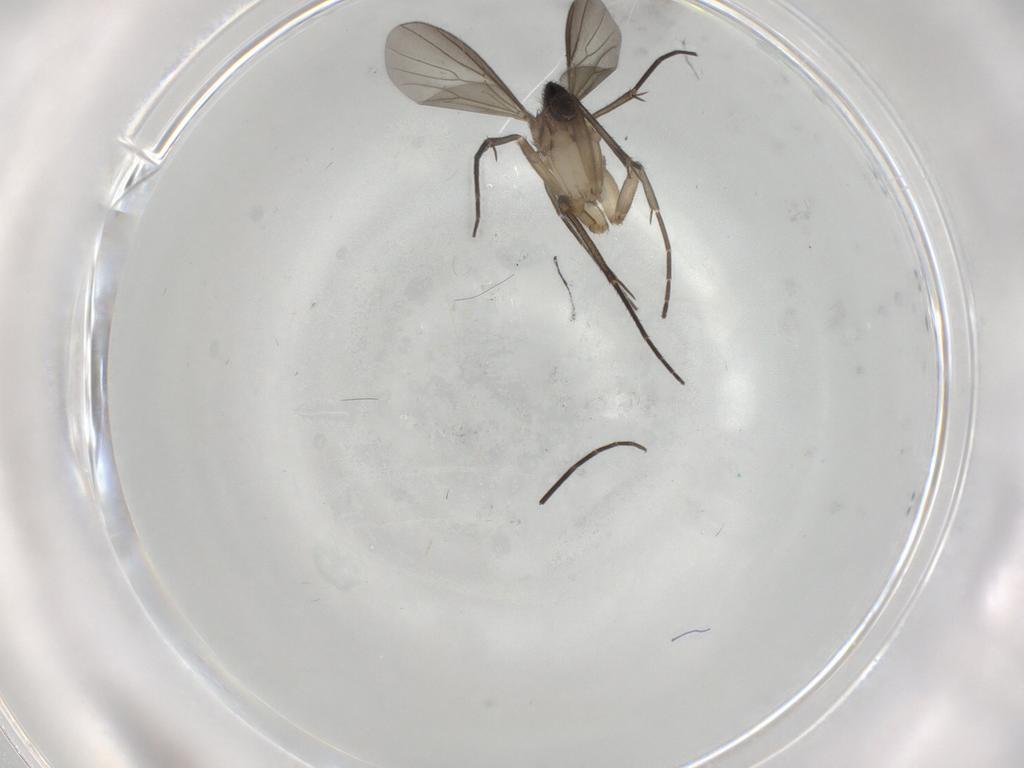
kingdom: Animalia
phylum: Arthropoda
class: Insecta
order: Diptera
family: Mycetophilidae
